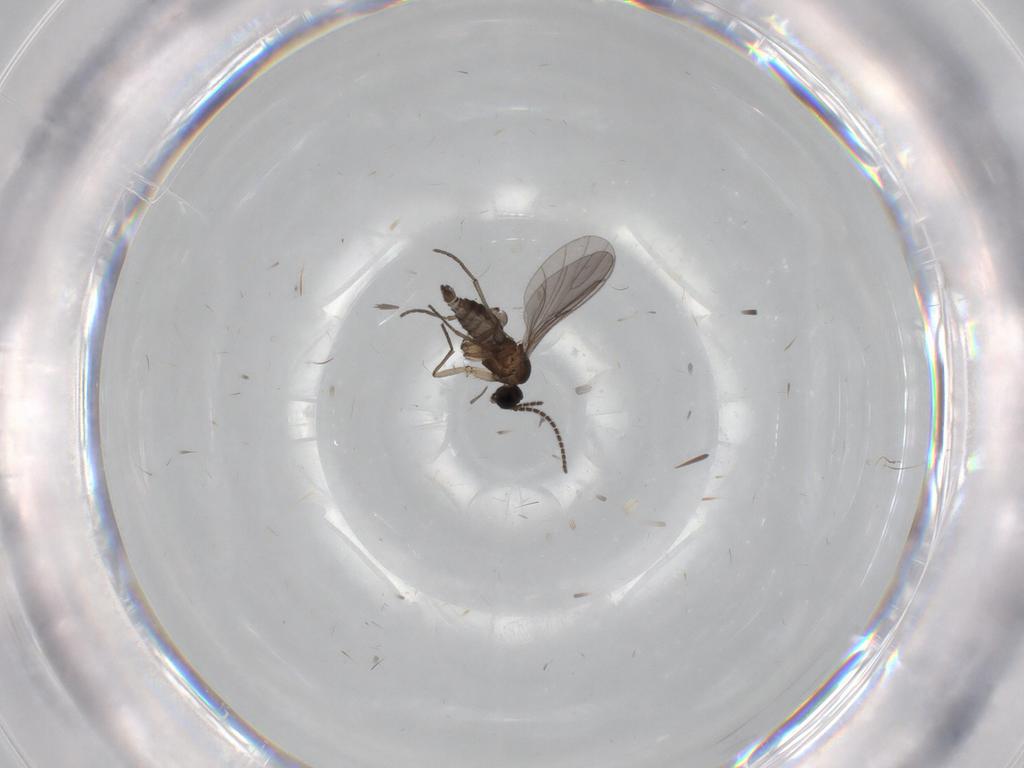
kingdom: Animalia
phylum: Arthropoda
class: Insecta
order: Diptera
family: Sciaridae
